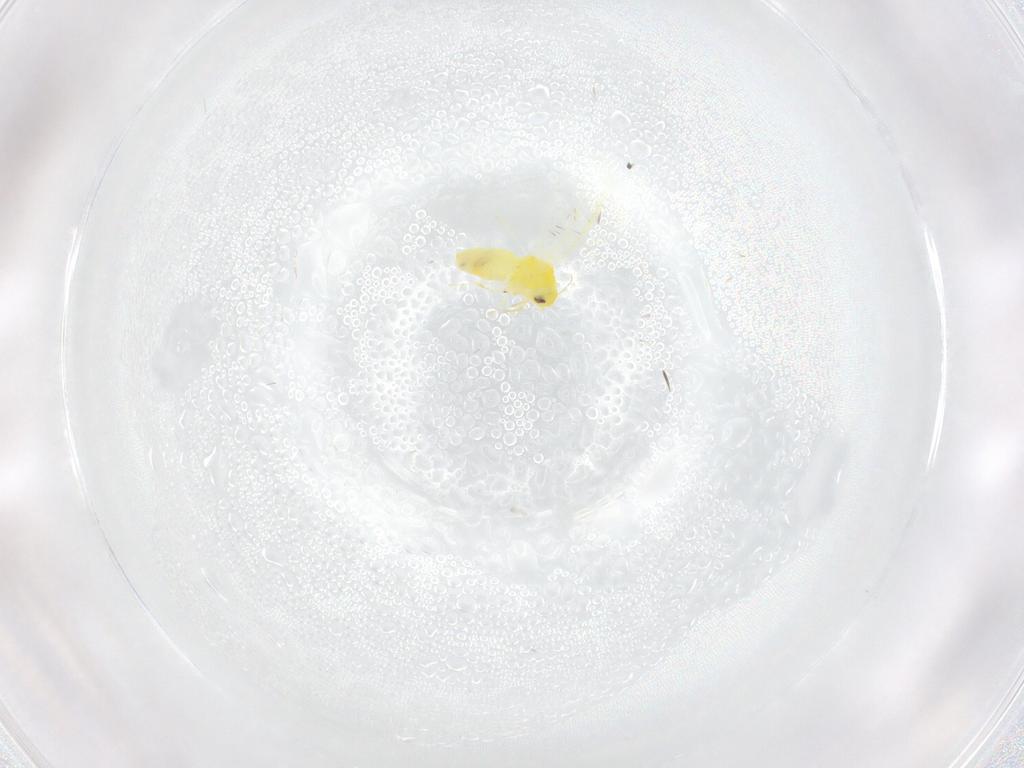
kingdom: Animalia
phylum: Arthropoda
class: Insecta
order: Hemiptera
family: Aleyrodidae
